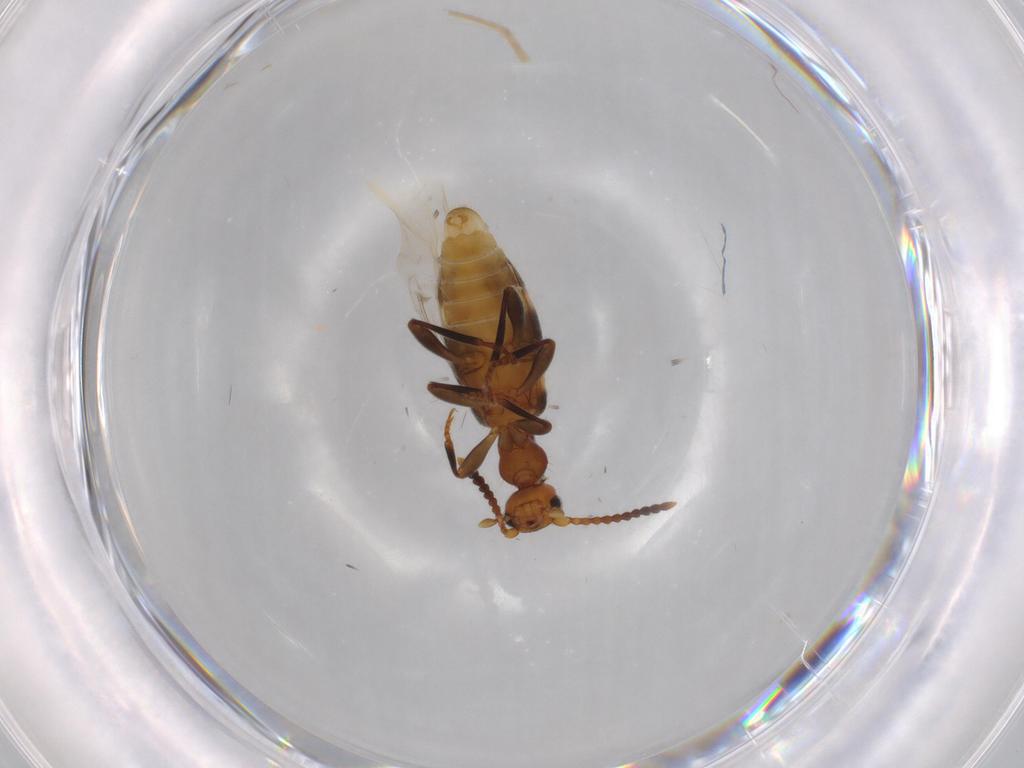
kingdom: Animalia
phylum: Arthropoda
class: Insecta
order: Coleoptera
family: Anthicidae
